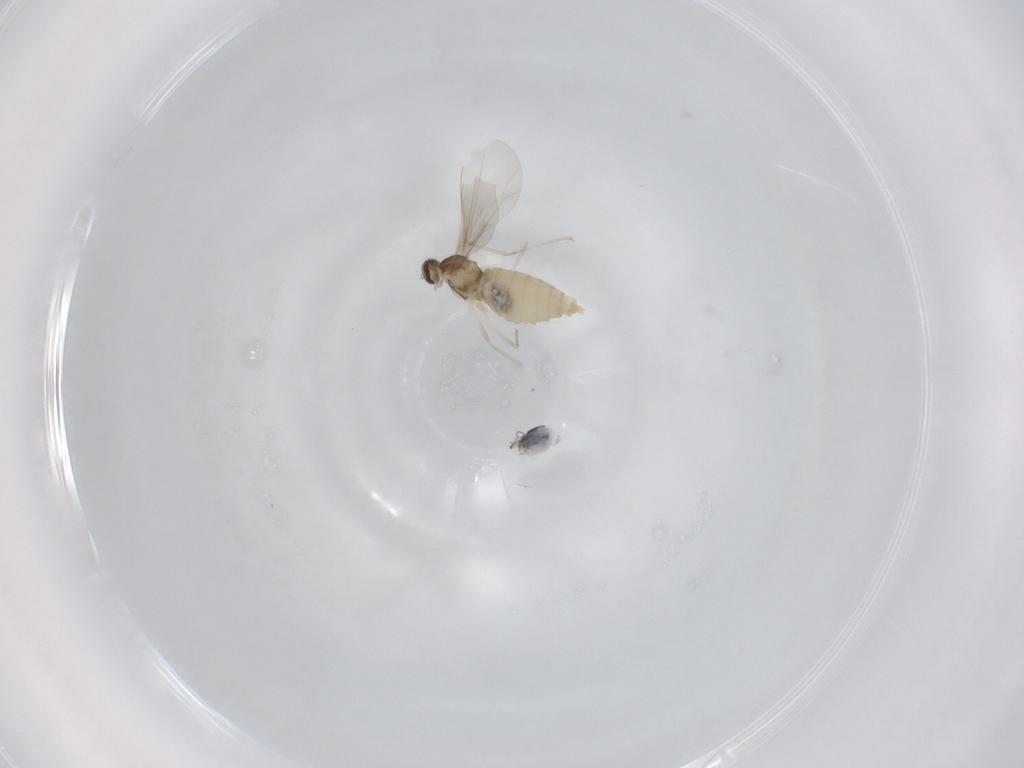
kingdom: Animalia
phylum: Arthropoda
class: Insecta
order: Diptera
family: Cecidomyiidae
